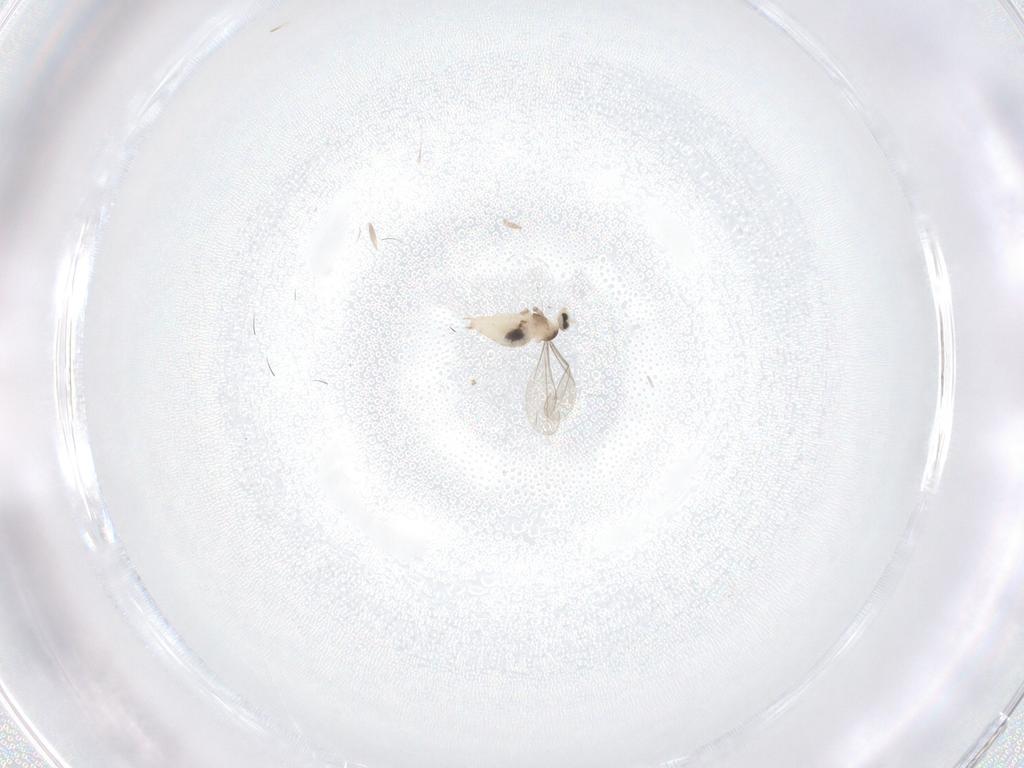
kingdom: Animalia
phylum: Arthropoda
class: Insecta
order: Diptera
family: Cecidomyiidae
